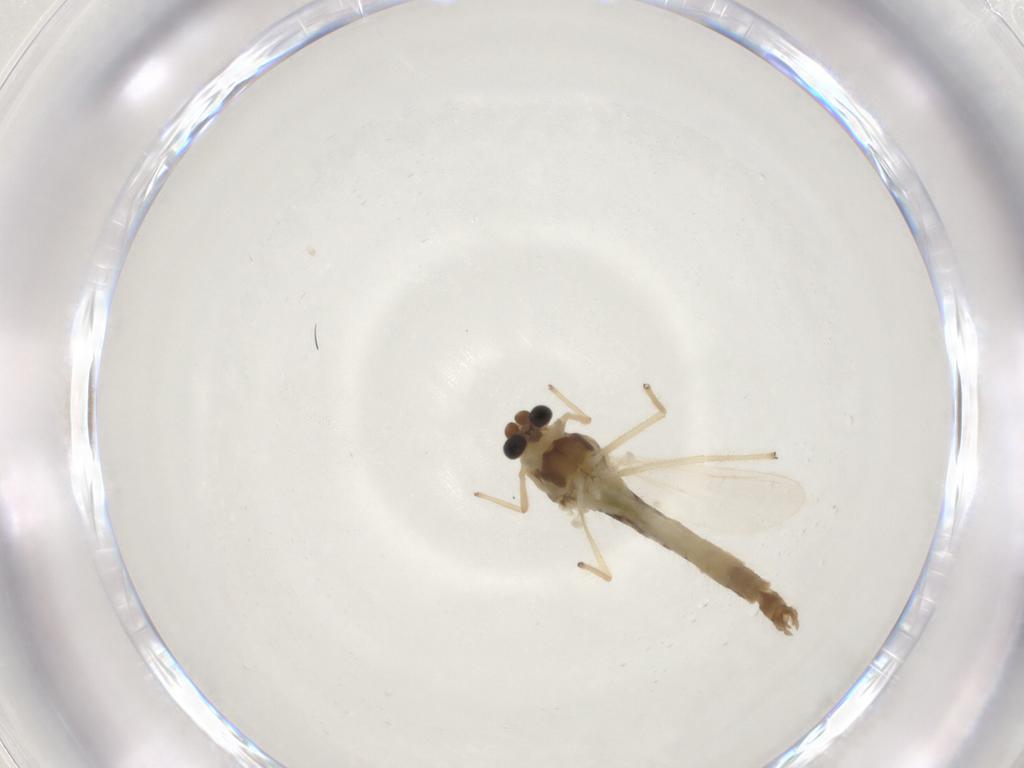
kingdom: Animalia
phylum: Arthropoda
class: Insecta
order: Diptera
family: Chironomidae
